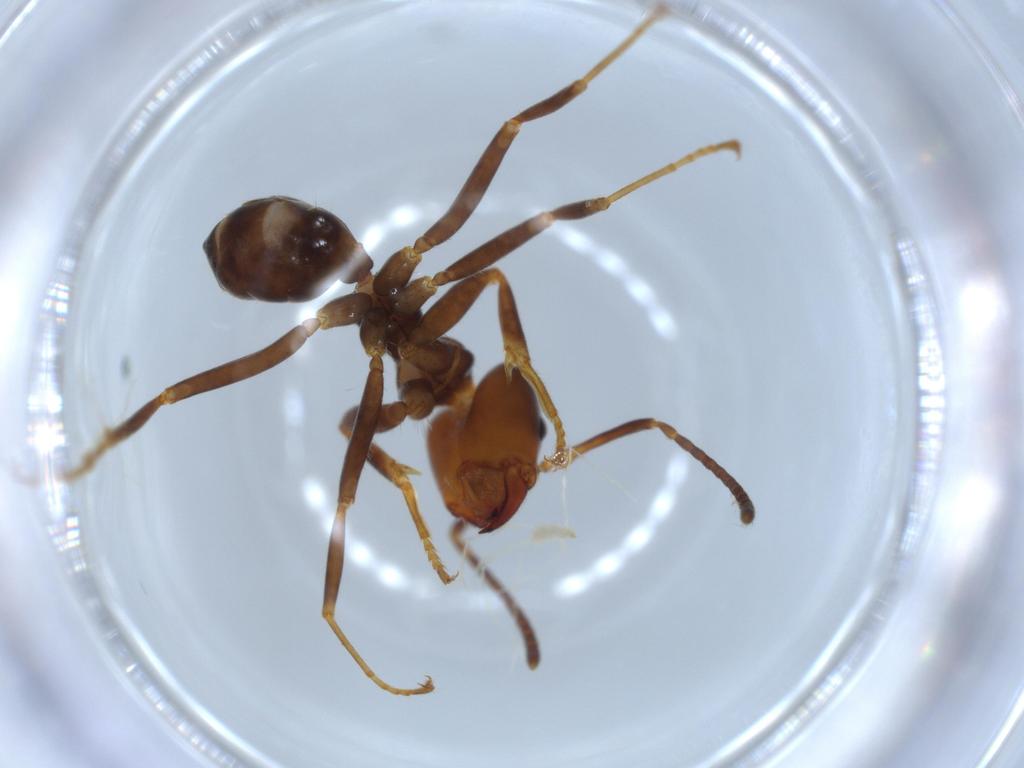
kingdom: Animalia
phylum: Arthropoda
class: Insecta
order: Hymenoptera
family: Formicidae
